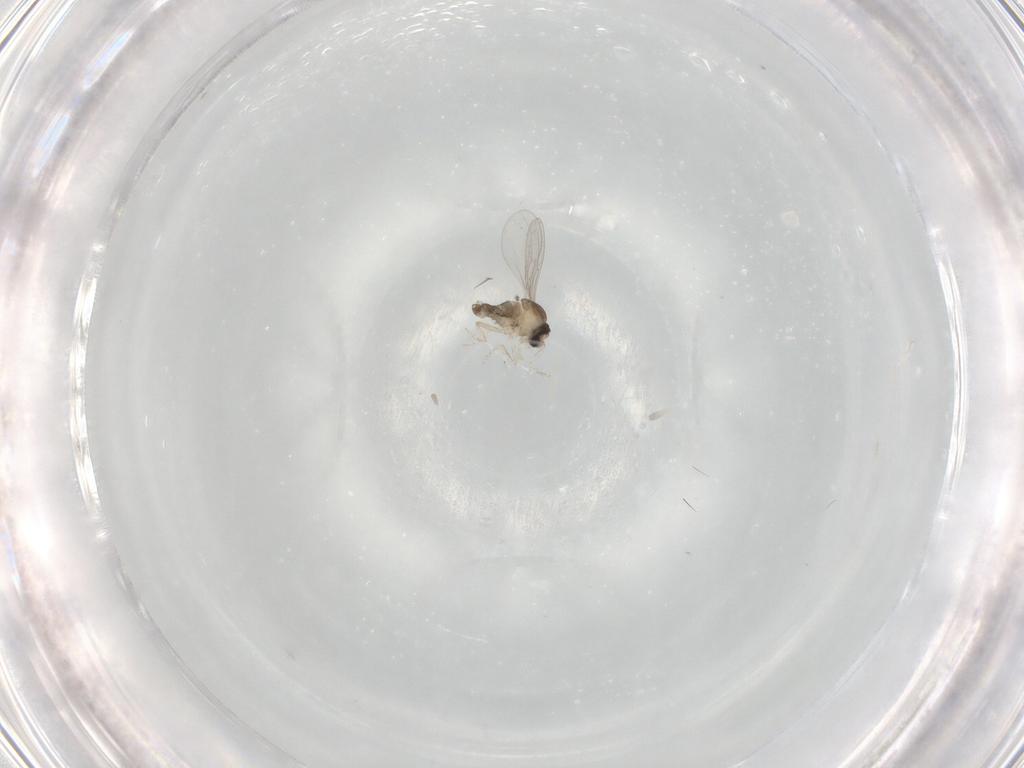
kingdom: Animalia
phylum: Arthropoda
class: Insecta
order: Diptera
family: Cecidomyiidae
